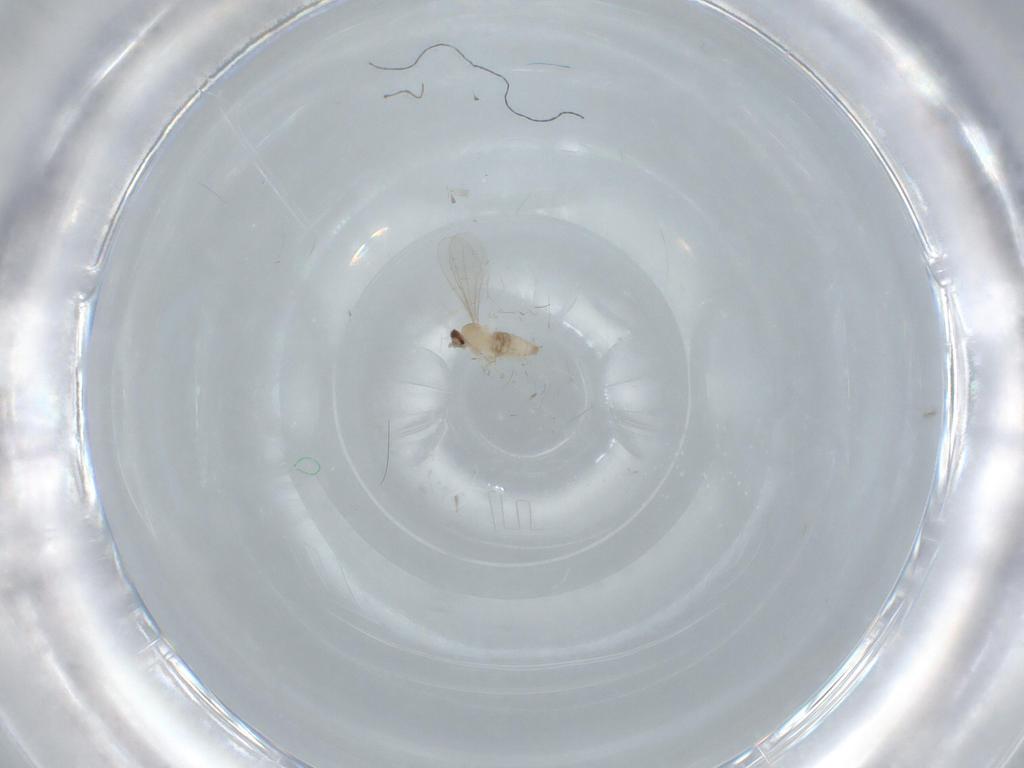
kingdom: Animalia
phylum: Arthropoda
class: Insecta
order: Diptera
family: Cecidomyiidae
